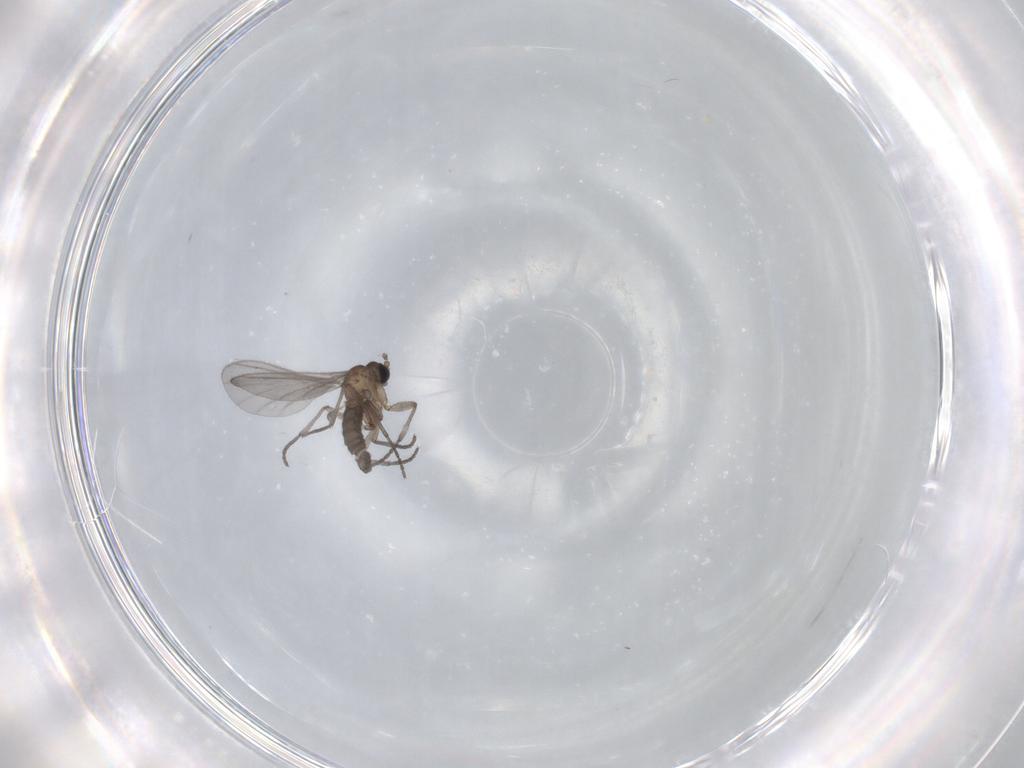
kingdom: Animalia
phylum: Arthropoda
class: Insecta
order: Diptera
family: Sciaridae
